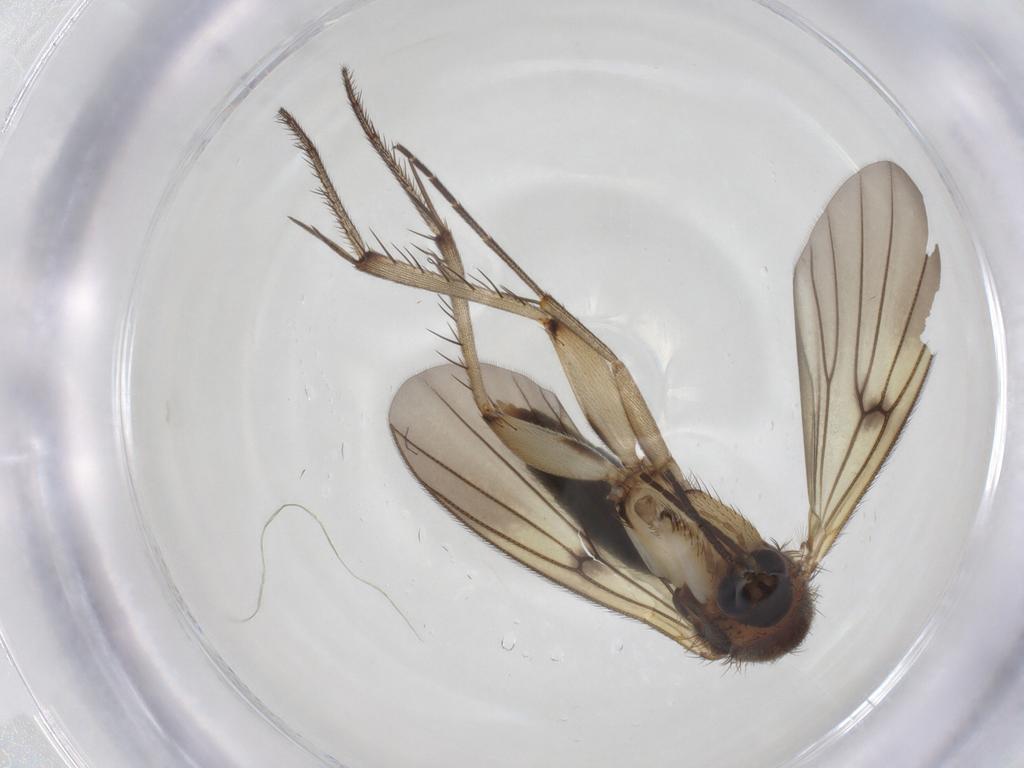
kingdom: Animalia
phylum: Arthropoda
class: Insecta
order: Diptera
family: Mycetophilidae
